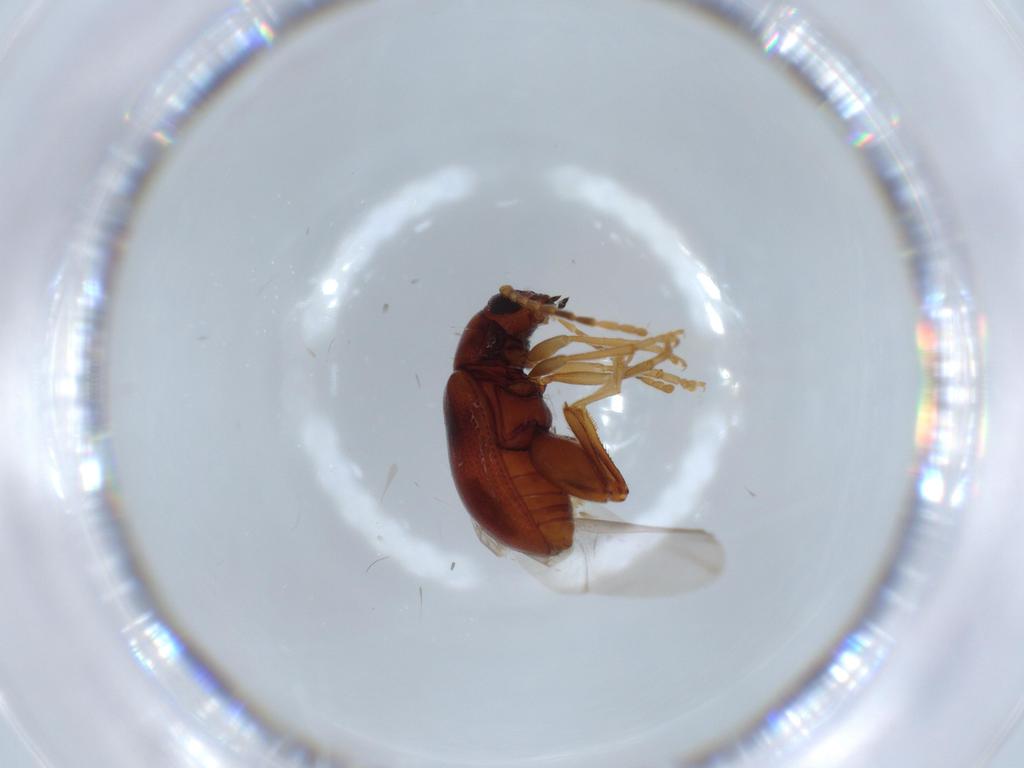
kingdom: Animalia
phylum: Arthropoda
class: Insecta
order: Coleoptera
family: Chrysomelidae
